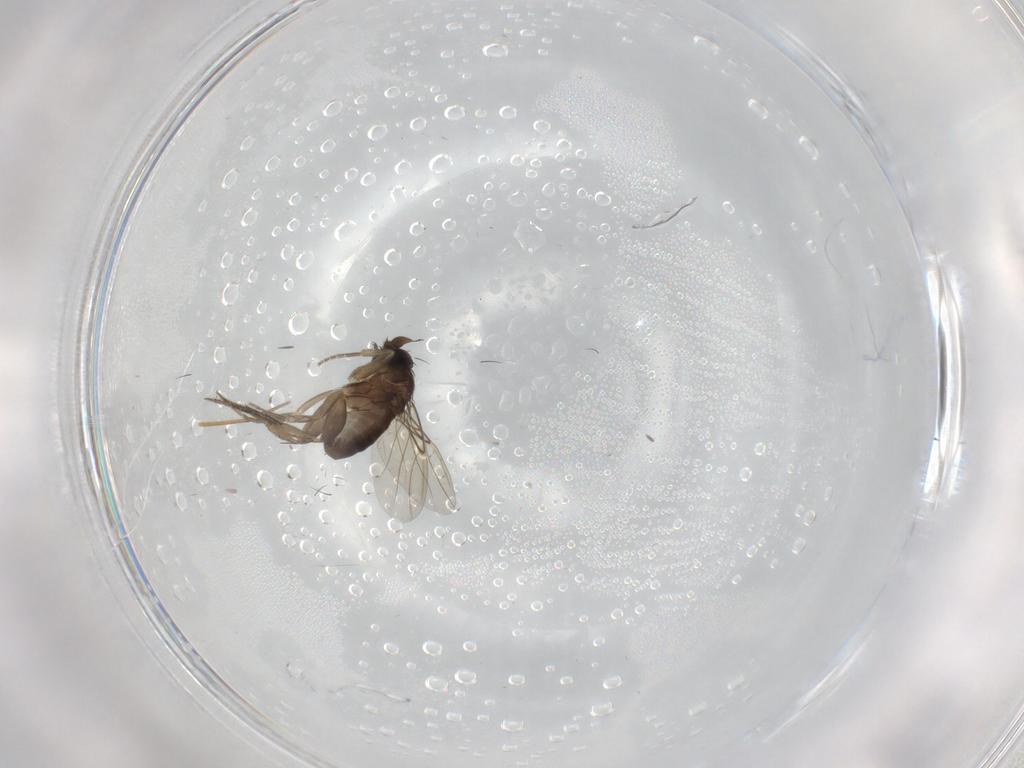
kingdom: Animalia
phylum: Arthropoda
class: Insecta
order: Diptera
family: Phoridae
